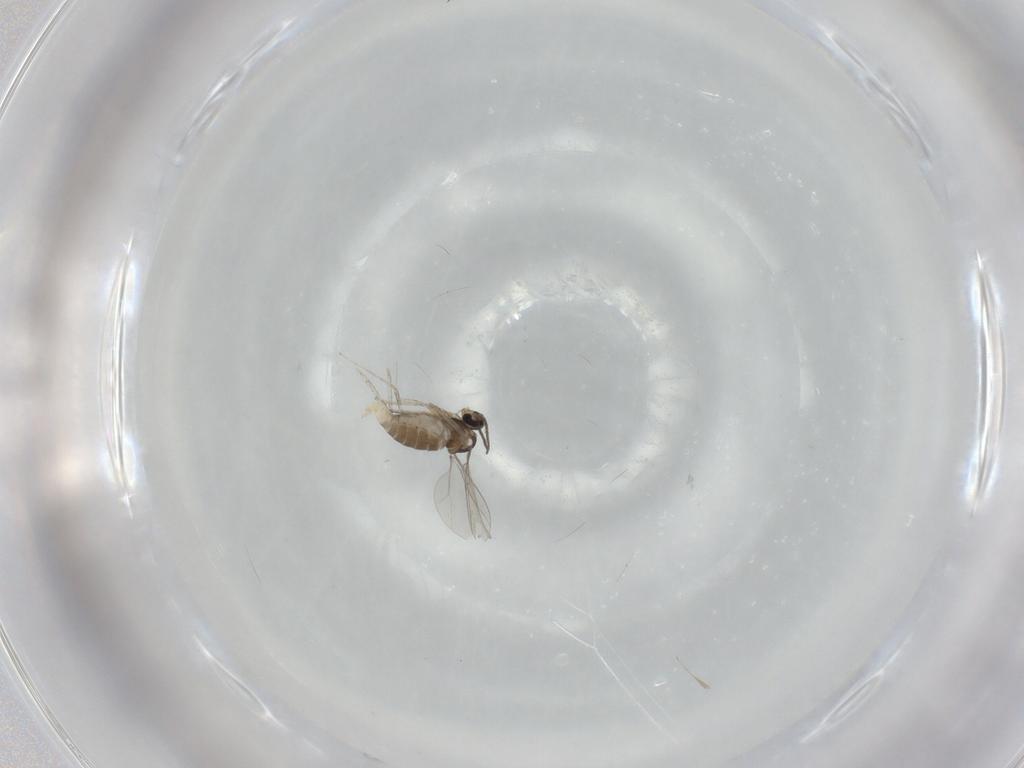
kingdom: Animalia
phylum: Arthropoda
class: Insecta
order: Diptera
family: Cecidomyiidae
